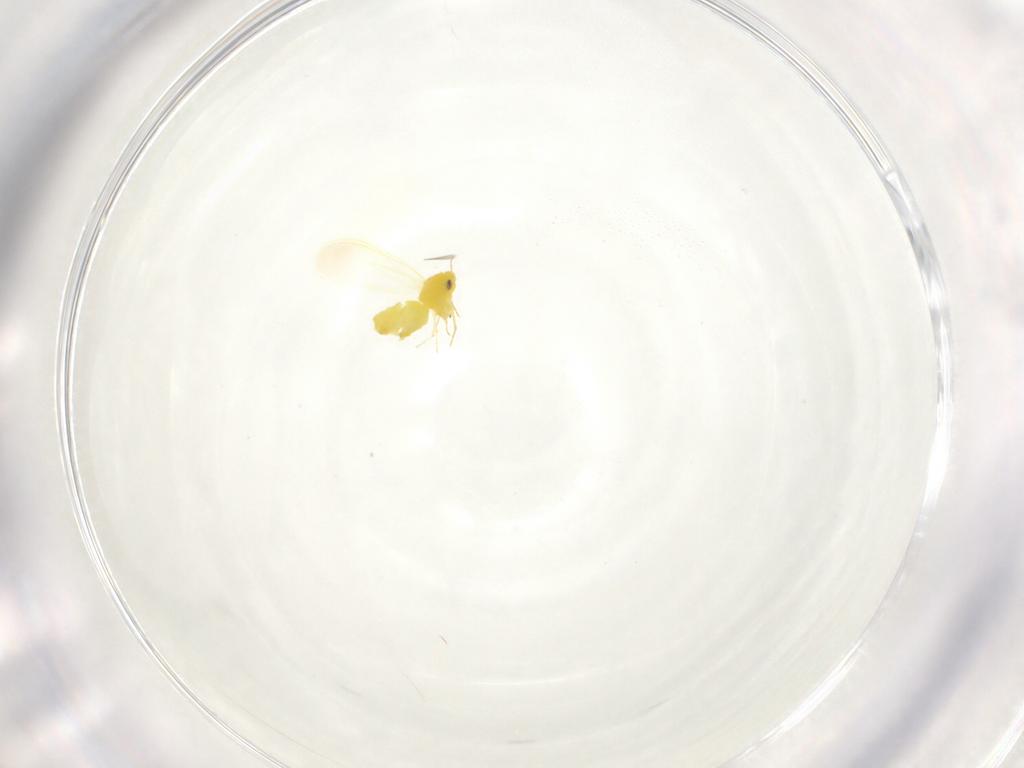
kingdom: Animalia
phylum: Arthropoda
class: Insecta
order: Hemiptera
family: Aleyrodidae
